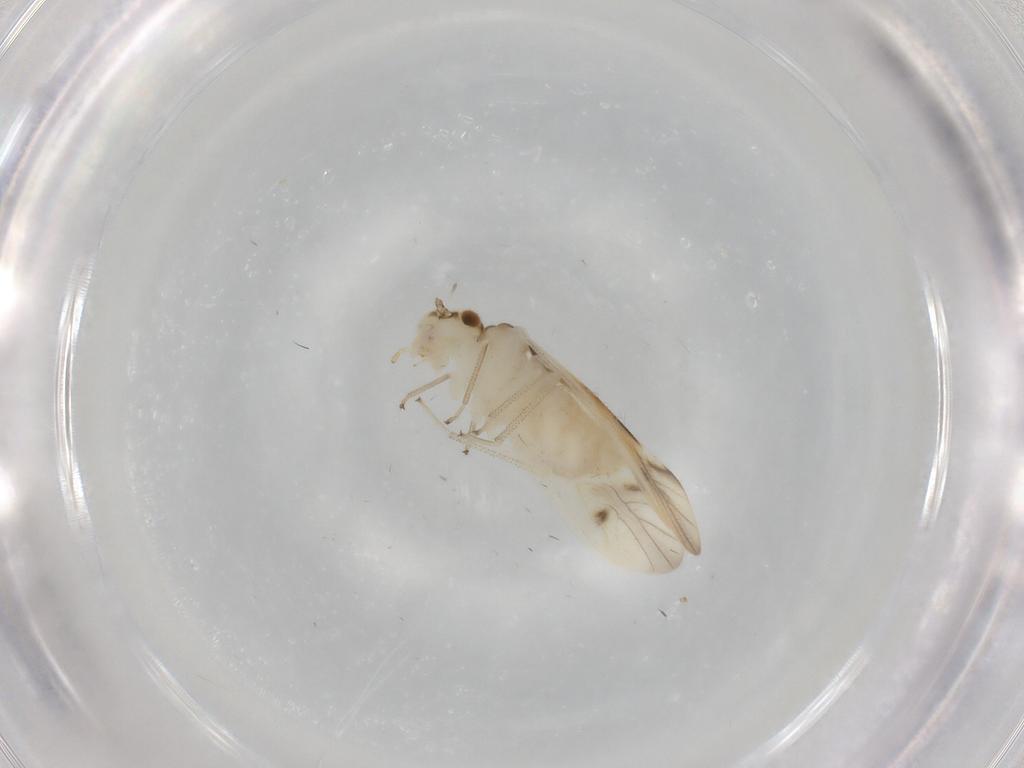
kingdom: Animalia
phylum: Arthropoda
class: Insecta
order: Psocodea
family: Caeciliusidae
